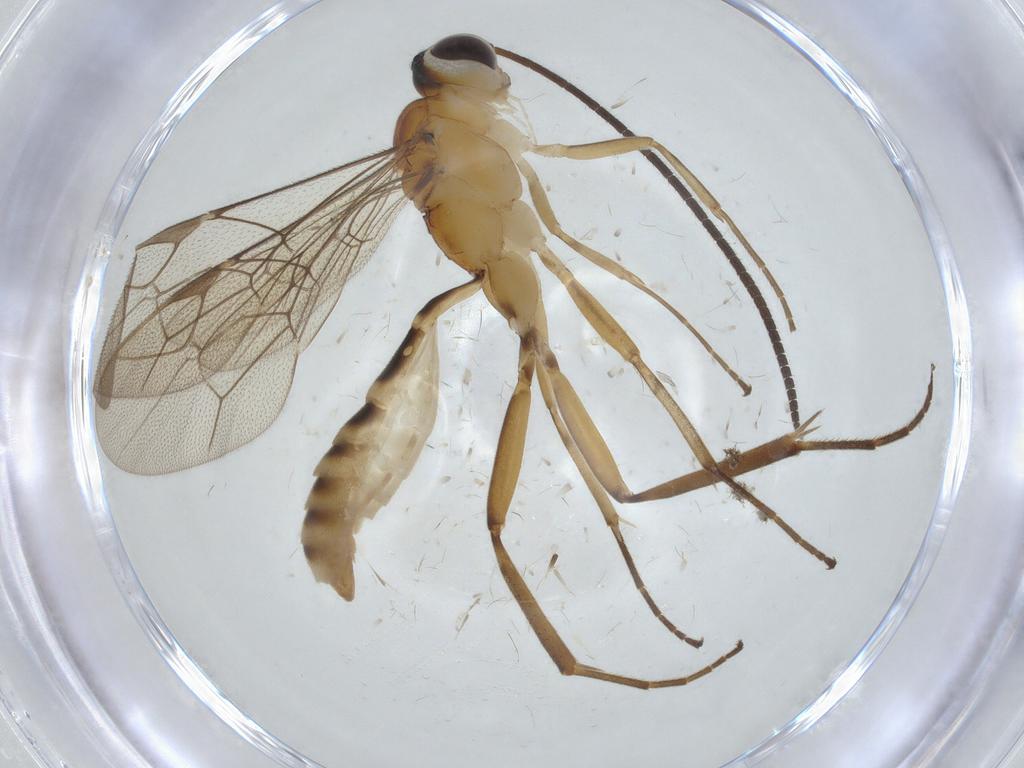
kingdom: Animalia
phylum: Arthropoda
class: Insecta
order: Hymenoptera
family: Ichneumonidae
